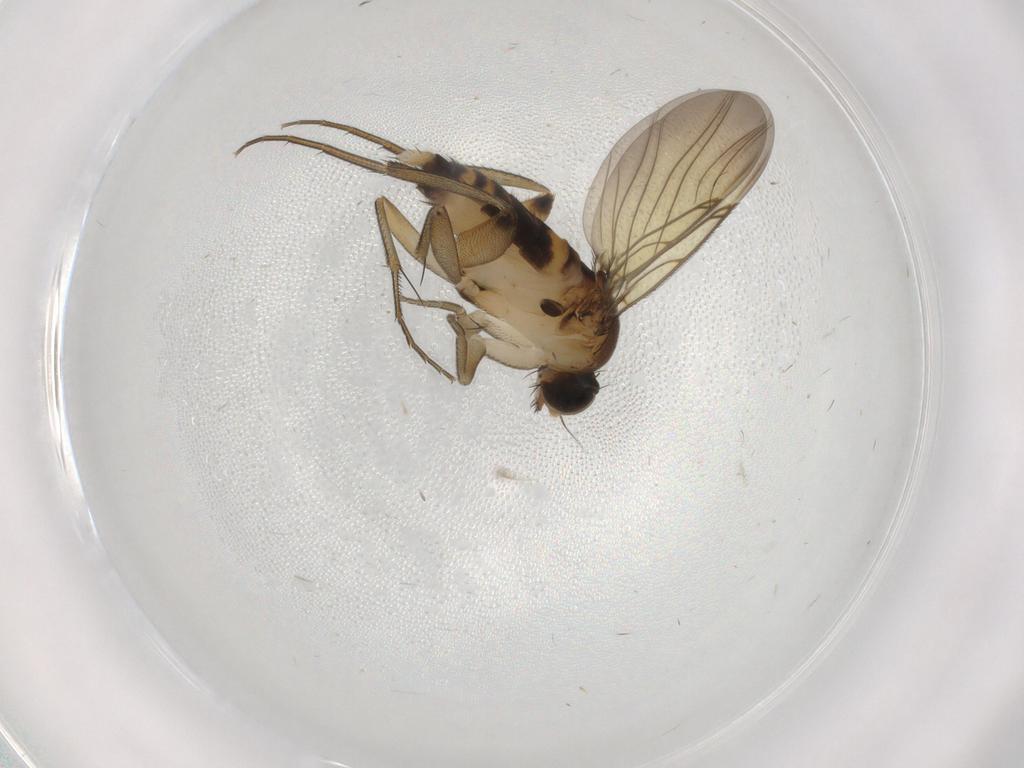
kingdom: Animalia
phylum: Arthropoda
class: Insecta
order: Diptera
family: Phoridae
